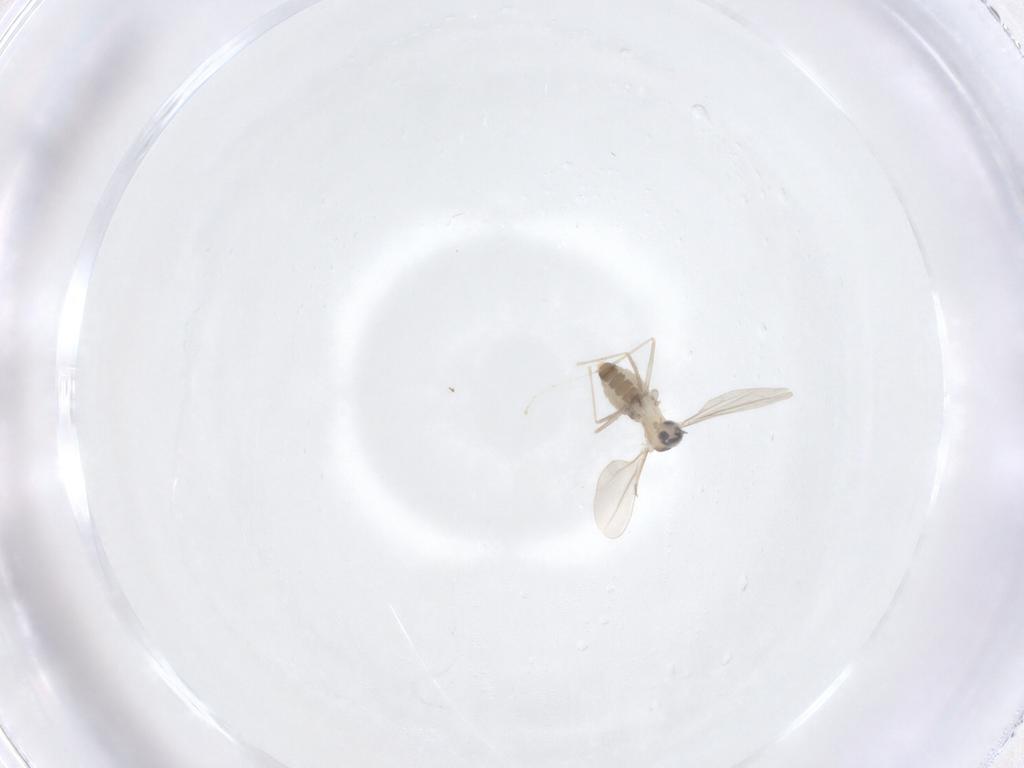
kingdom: Animalia
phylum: Arthropoda
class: Insecta
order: Diptera
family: Cecidomyiidae
